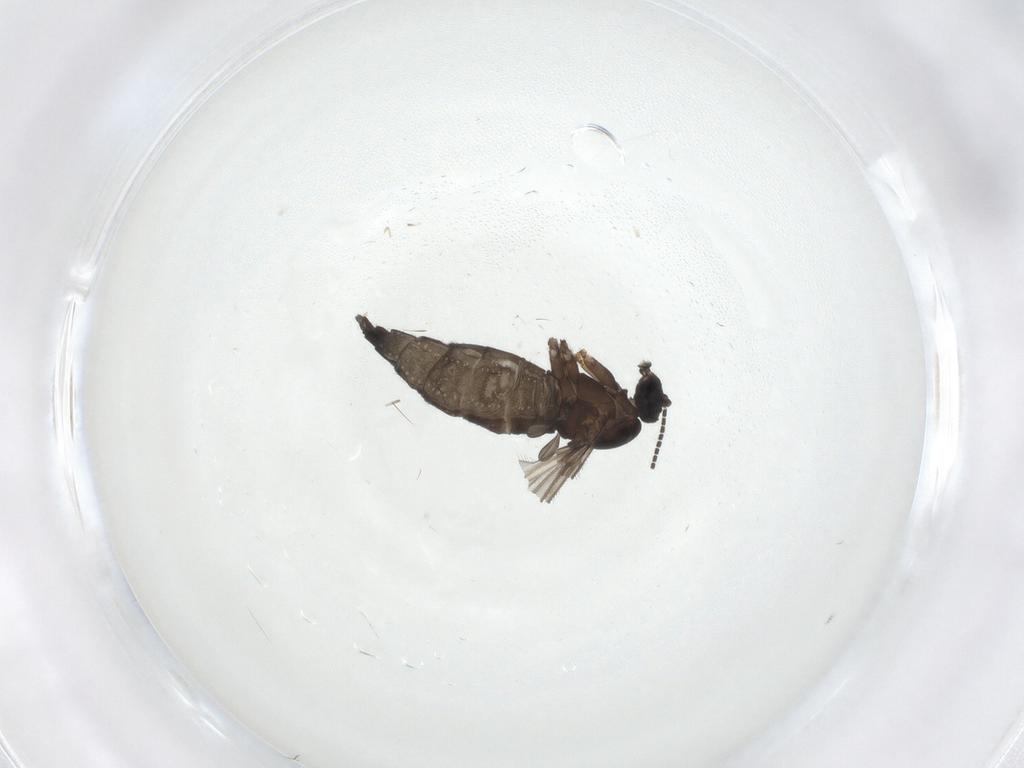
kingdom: Animalia
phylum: Arthropoda
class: Insecta
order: Diptera
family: Sciaridae
